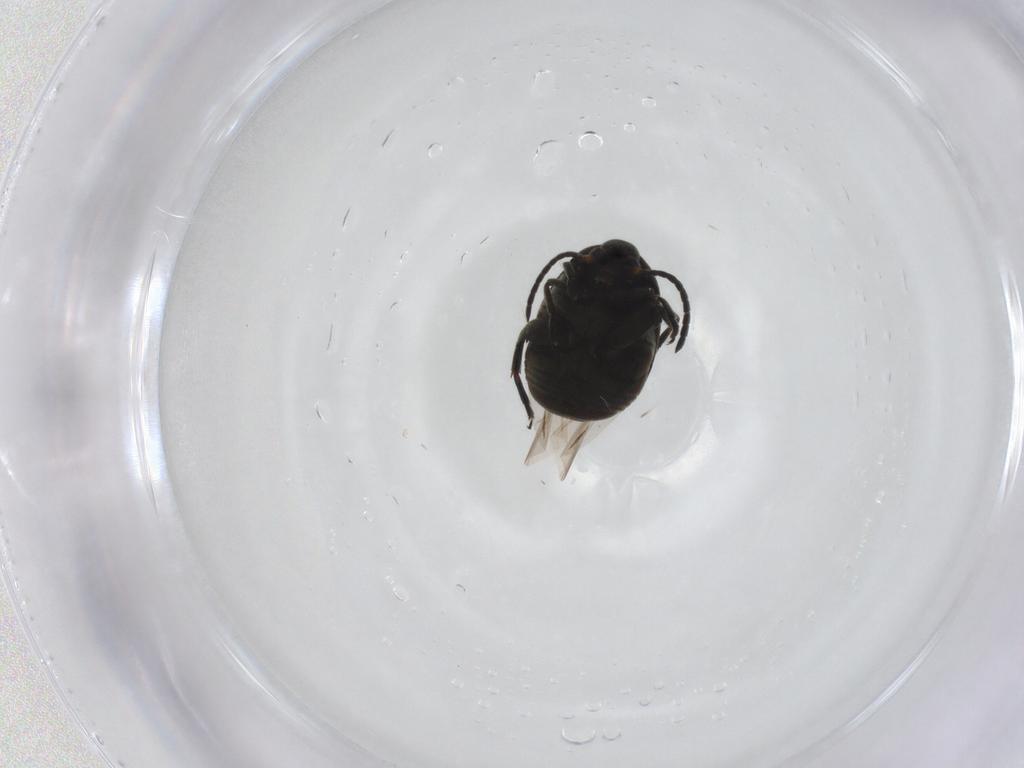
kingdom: Animalia
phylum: Arthropoda
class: Insecta
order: Coleoptera
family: Chrysomelidae
